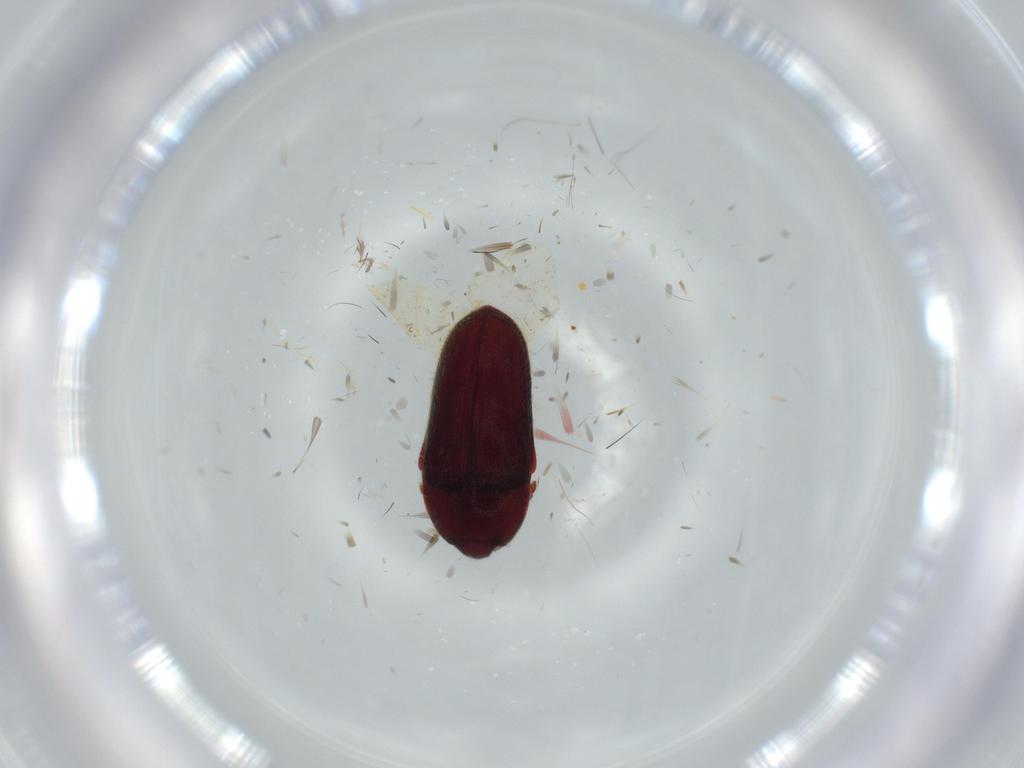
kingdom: Animalia
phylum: Arthropoda
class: Insecta
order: Coleoptera
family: Throscidae
